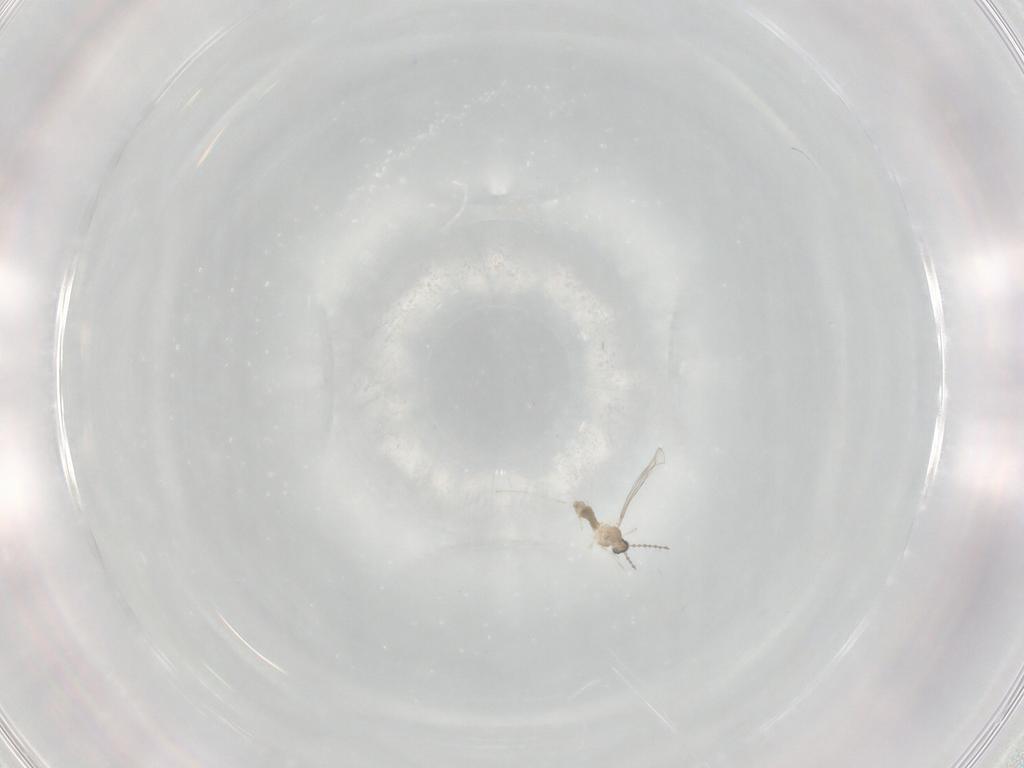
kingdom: Animalia
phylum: Arthropoda
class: Insecta
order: Diptera
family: Cecidomyiidae
